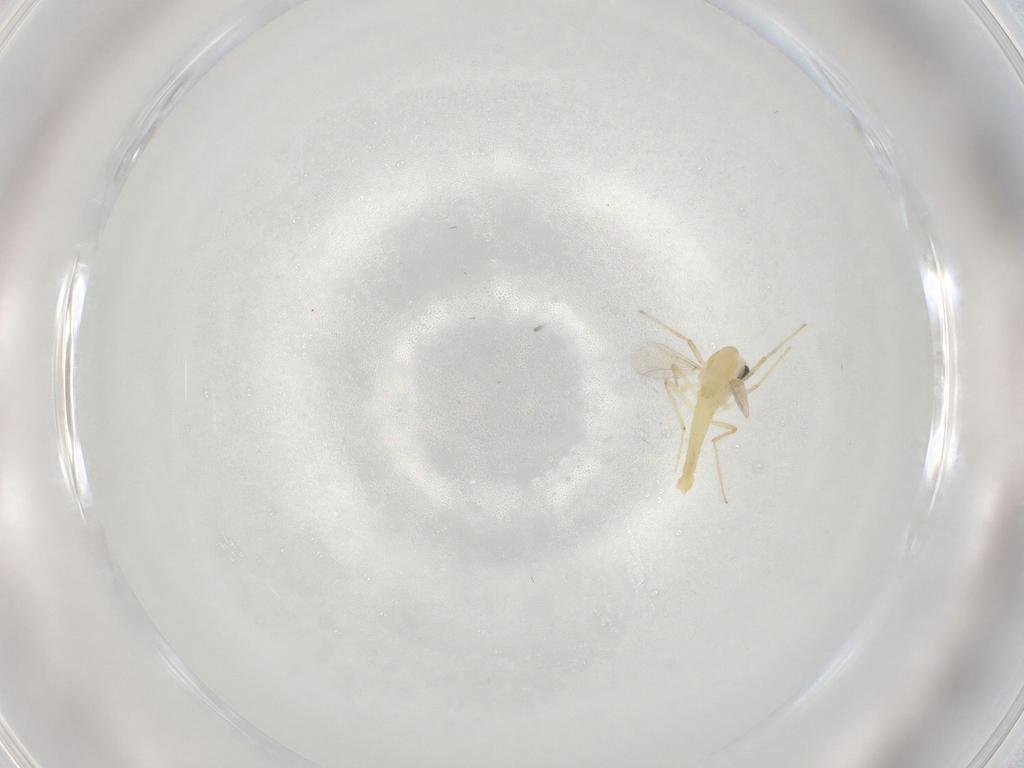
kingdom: Animalia
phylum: Arthropoda
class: Insecta
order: Diptera
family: Chironomidae
